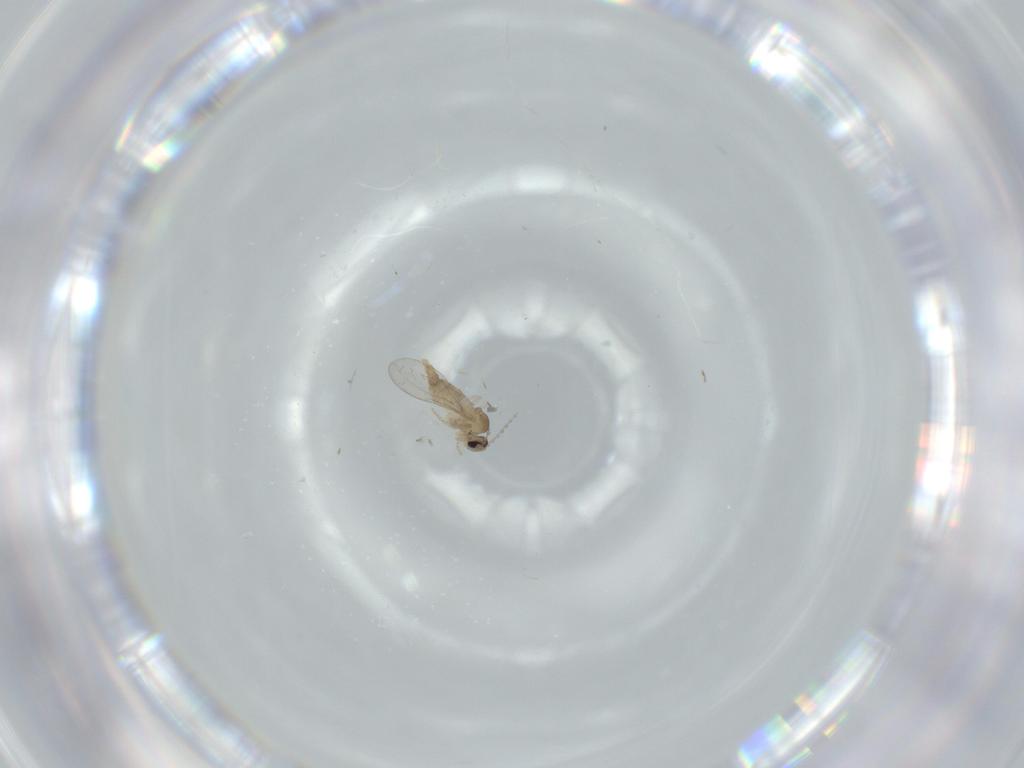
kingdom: Animalia
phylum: Arthropoda
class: Insecta
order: Diptera
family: Cecidomyiidae
